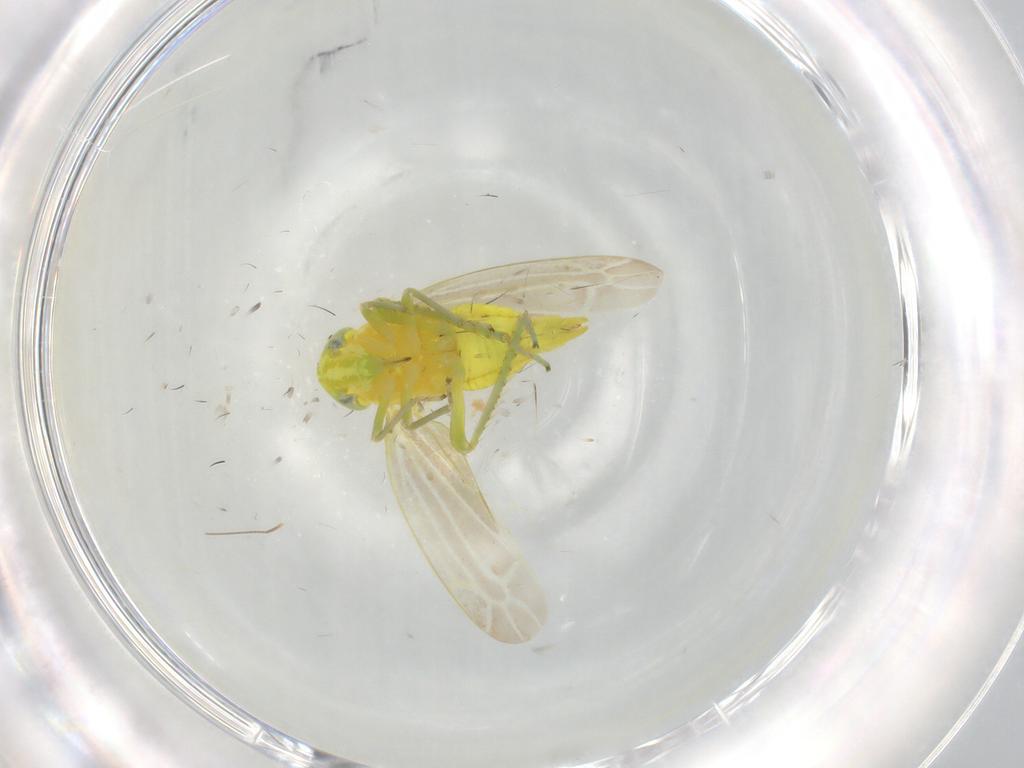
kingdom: Animalia
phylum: Arthropoda
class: Insecta
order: Hemiptera
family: Cicadellidae
